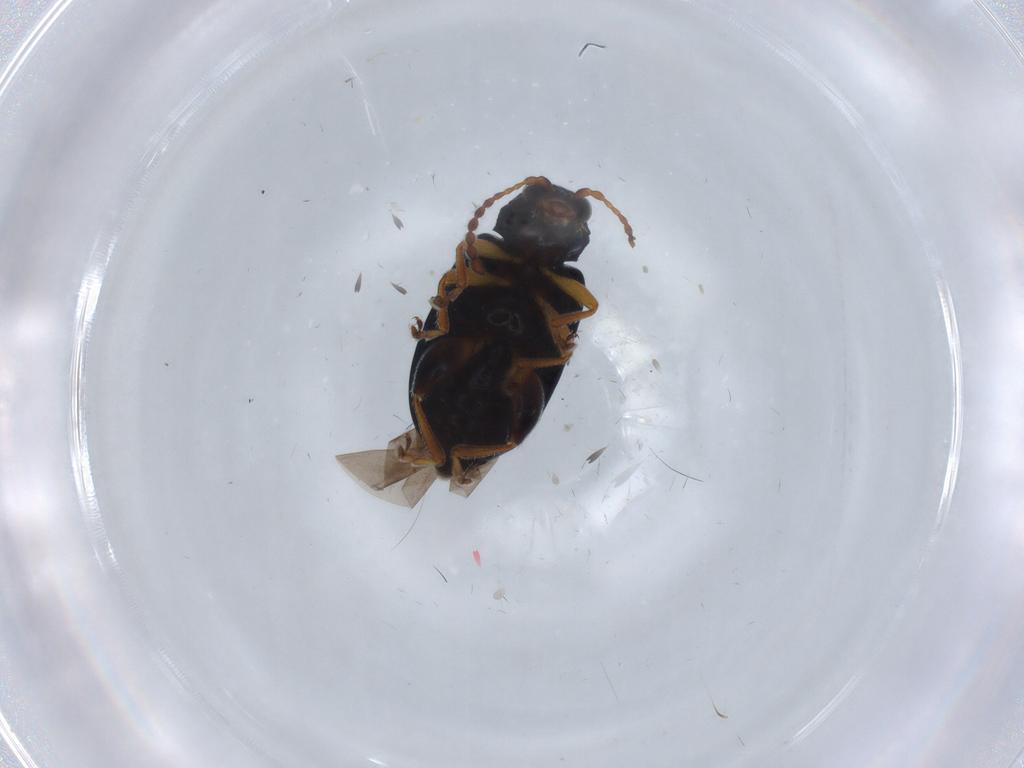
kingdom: Animalia
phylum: Arthropoda
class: Insecta
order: Coleoptera
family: Chrysomelidae
